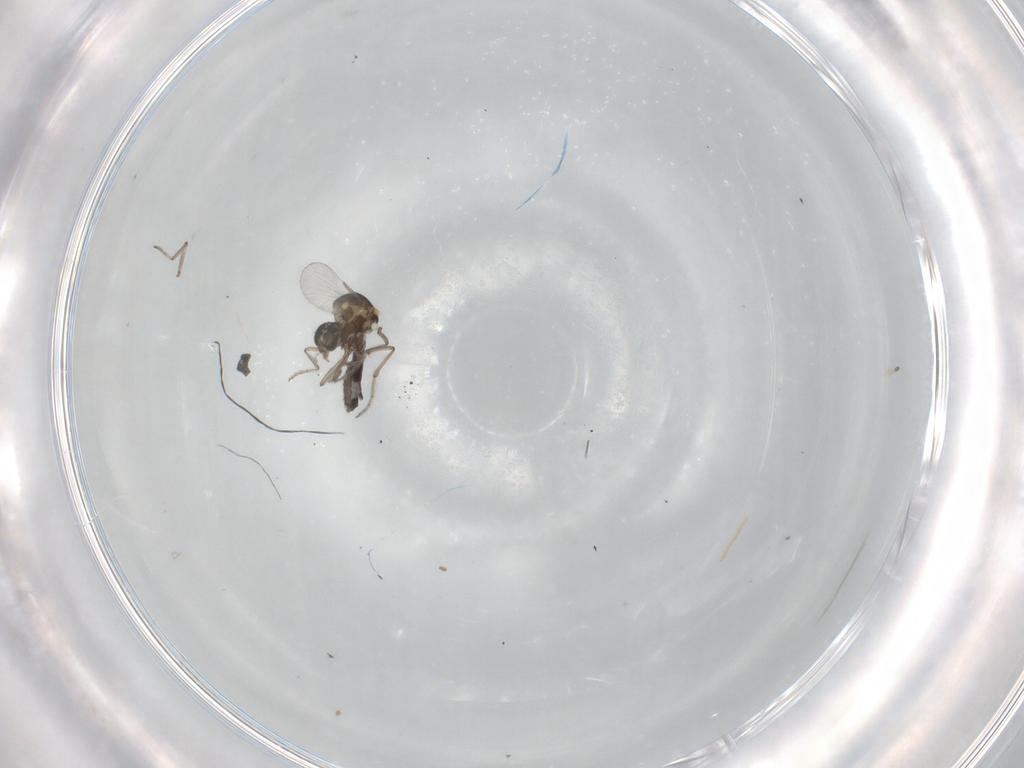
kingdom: Animalia
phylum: Arthropoda
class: Insecta
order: Diptera
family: Ceratopogonidae
